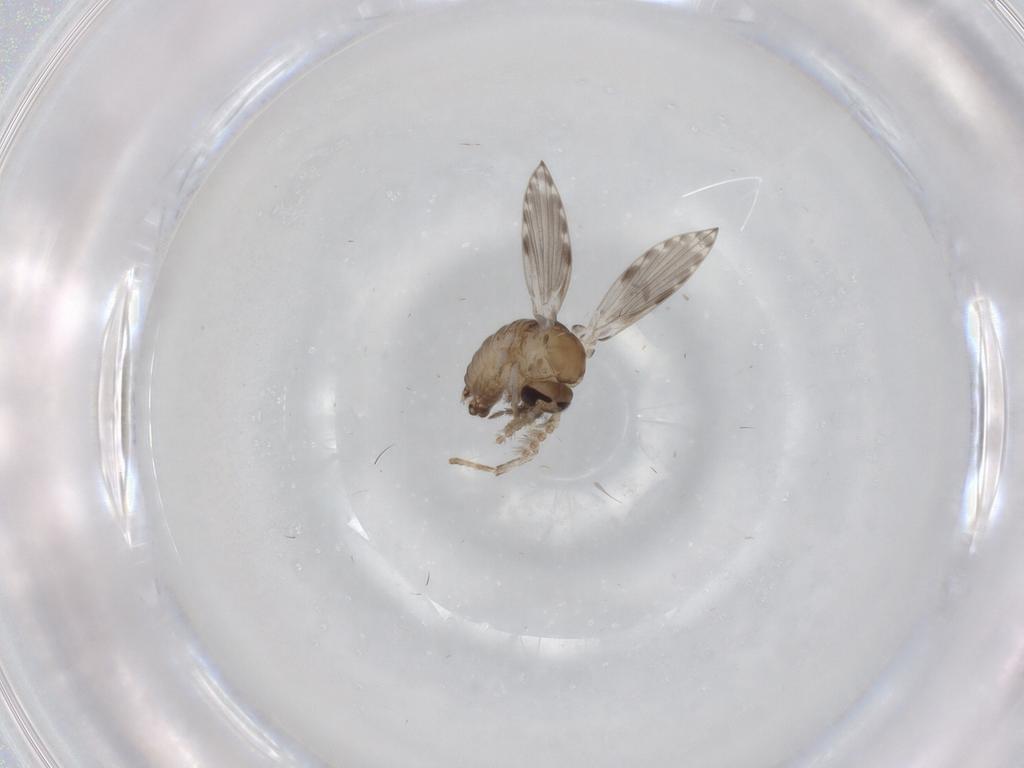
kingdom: Animalia
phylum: Arthropoda
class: Insecta
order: Diptera
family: Psychodidae
